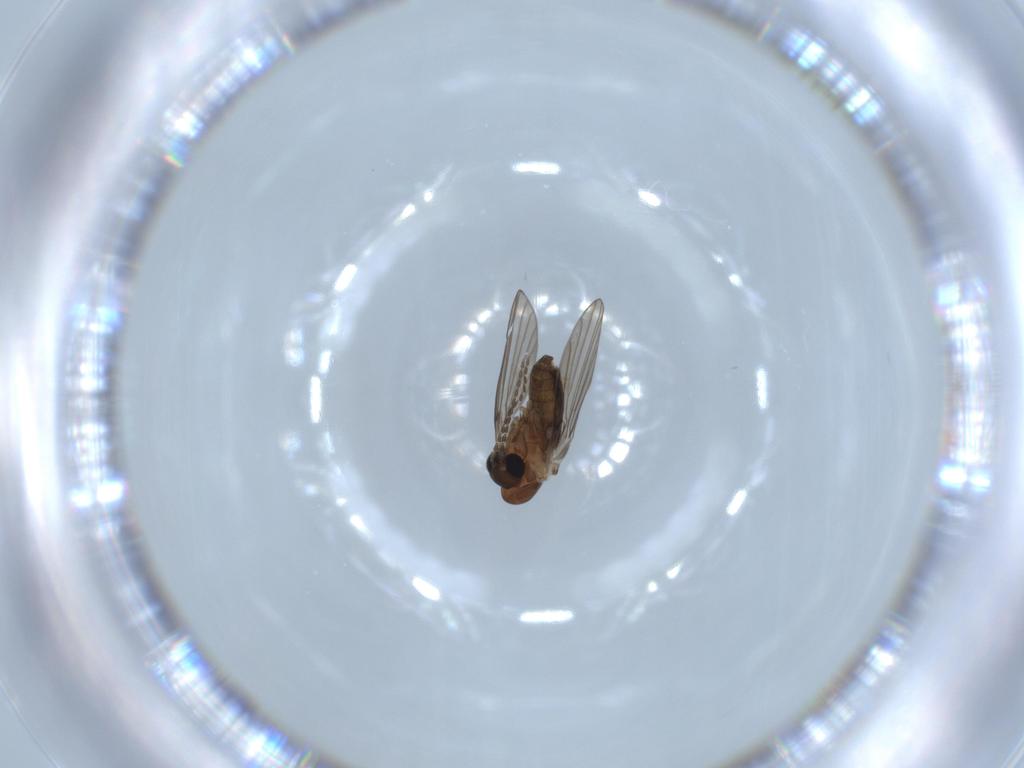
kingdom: Animalia
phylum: Arthropoda
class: Insecta
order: Diptera
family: Psychodidae
